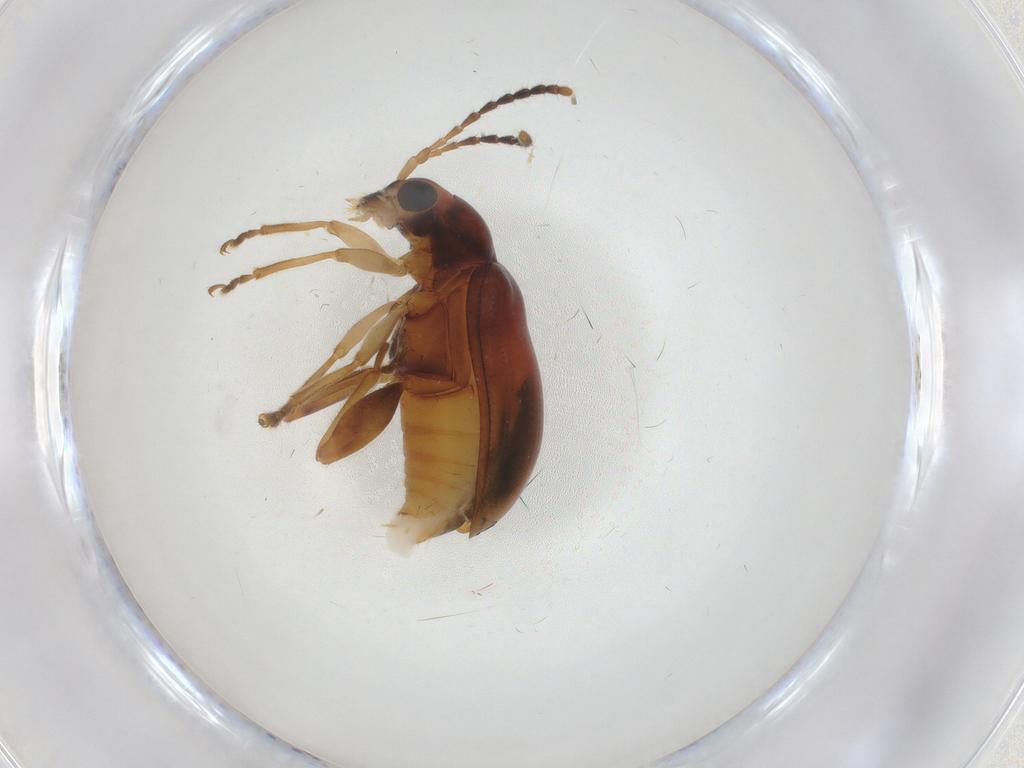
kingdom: Animalia
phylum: Arthropoda
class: Insecta
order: Coleoptera
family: Chrysomelidae
